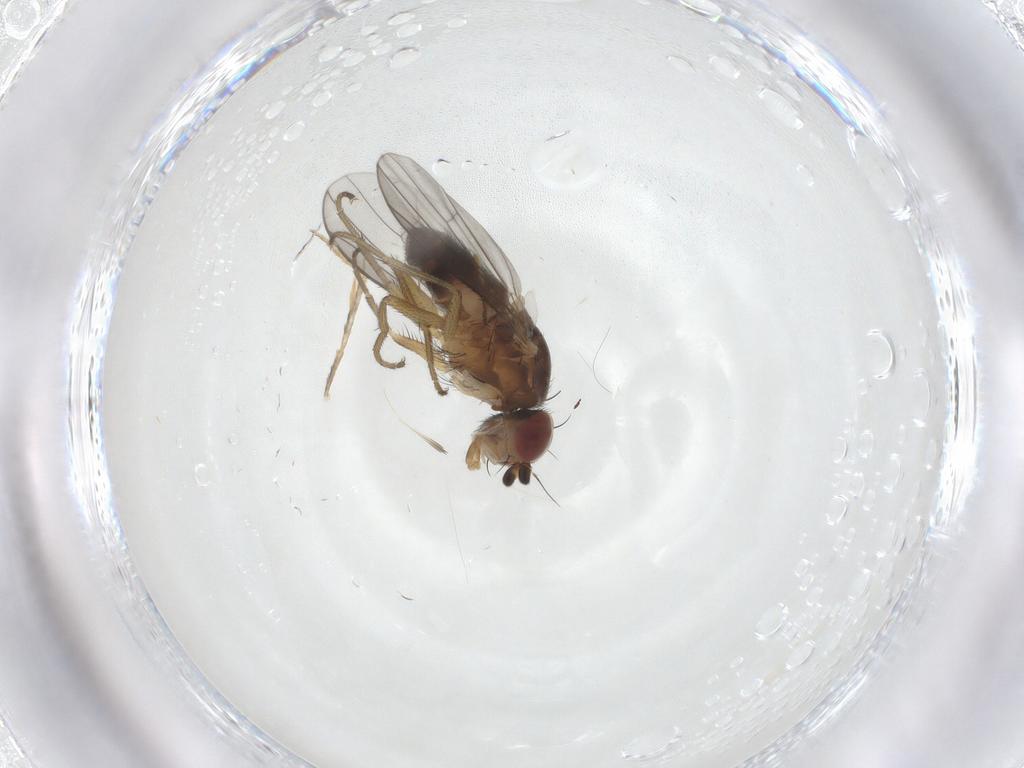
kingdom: Animalia
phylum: Arthropoda
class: Insecta
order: Diptera
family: Heleomyzidae
